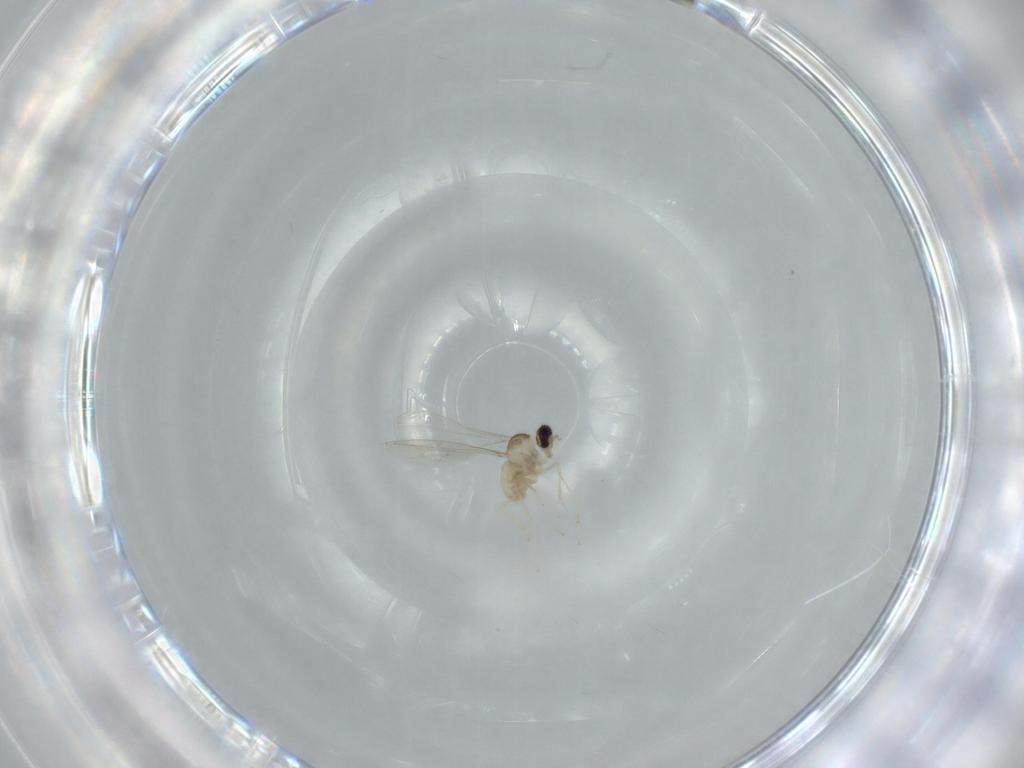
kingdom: Animalia
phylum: Arthropoda
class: Insecta
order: Diptera
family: Cecidomyiidae
